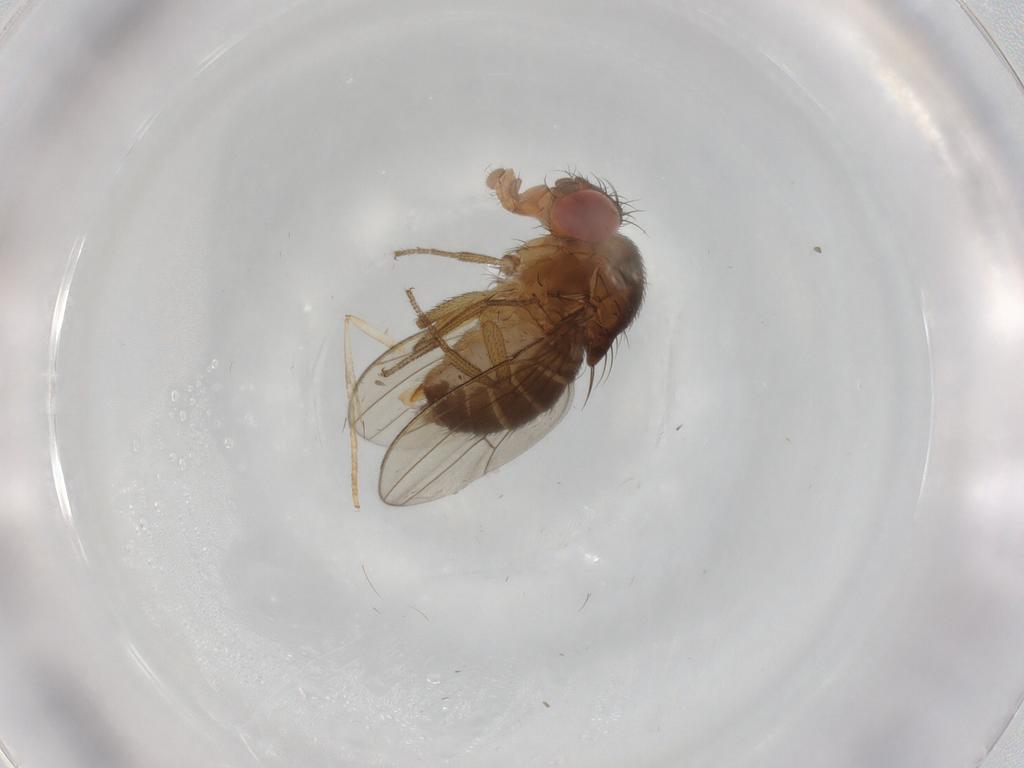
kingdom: Animalia
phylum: Arthropoda
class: Insecta
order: Diptera
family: Drosophilidae
